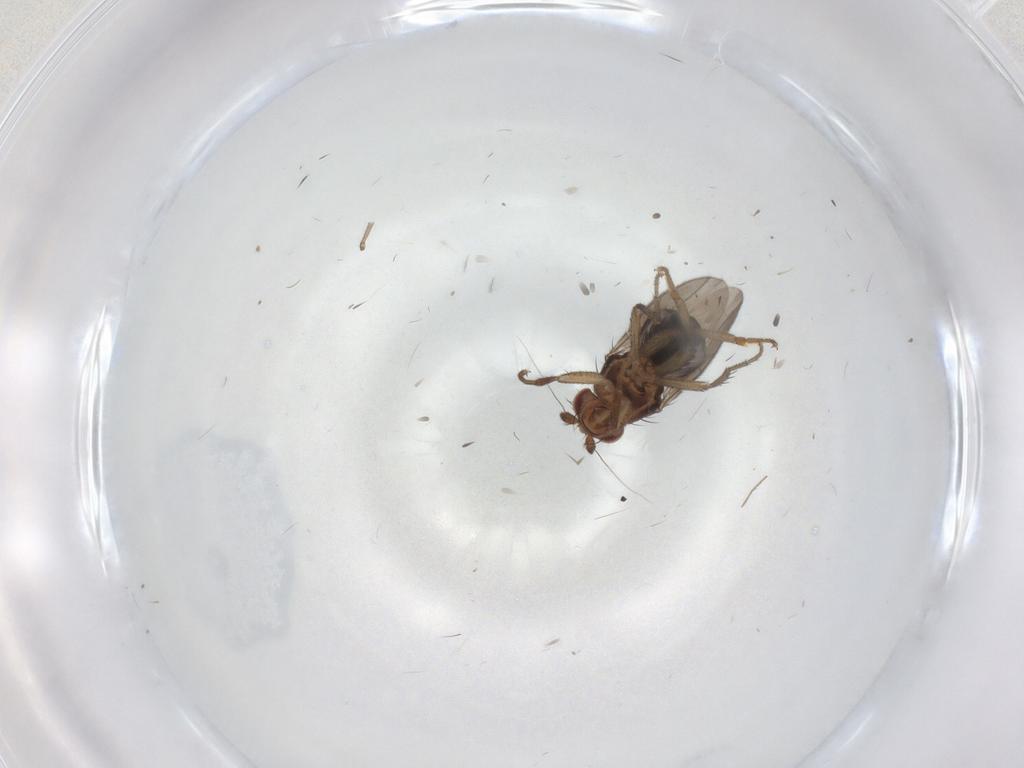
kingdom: Animalia
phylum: Arthropoda
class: Insecta
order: Diptera
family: Sphaeroceridae
